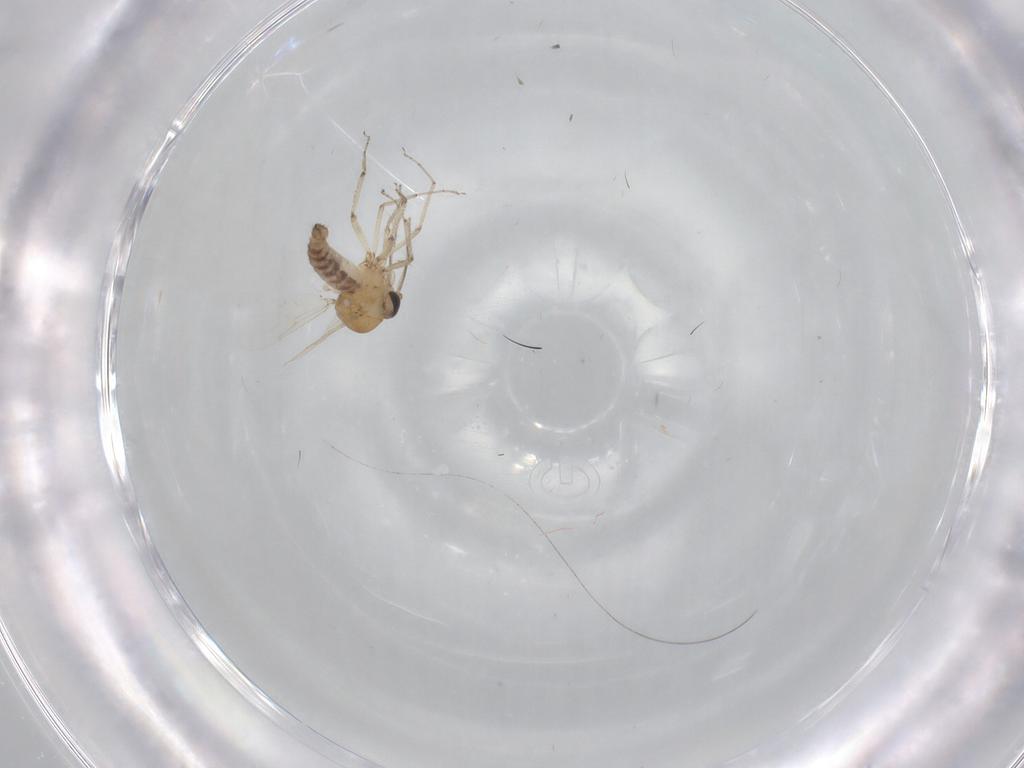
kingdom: Animalia
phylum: Arthropoda
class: Insecta
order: Diptera
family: Ceratopogonidae
